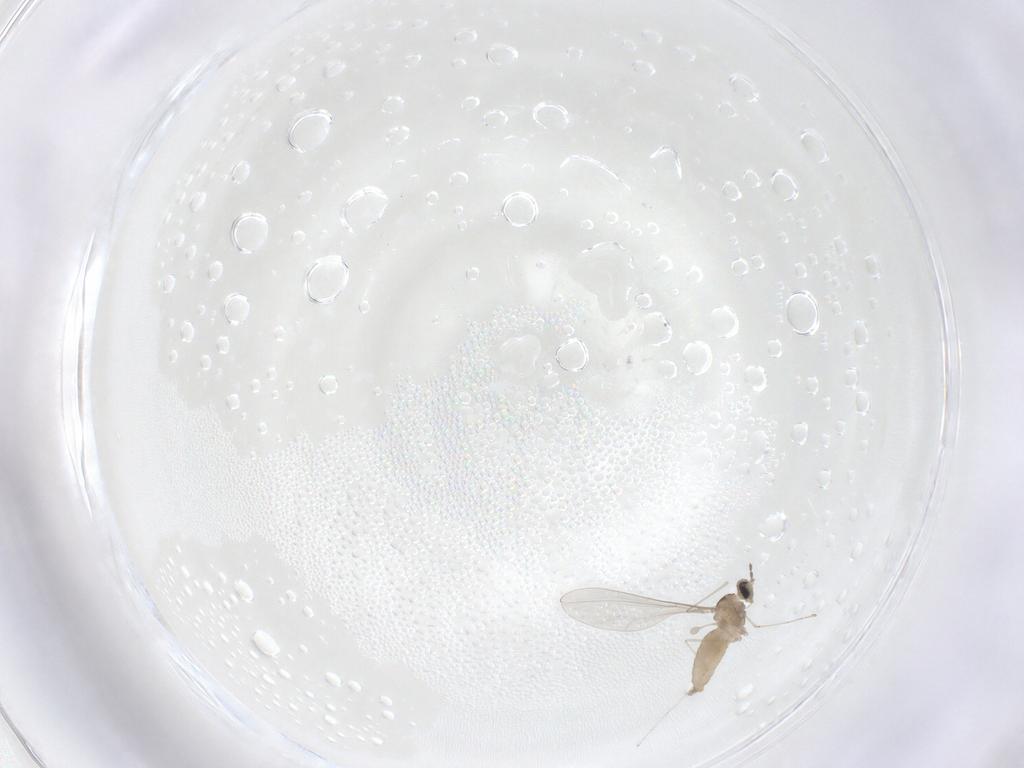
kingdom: Animalia
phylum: Arthropoda
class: Insecta
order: Diptera
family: Cecidomyiidae
